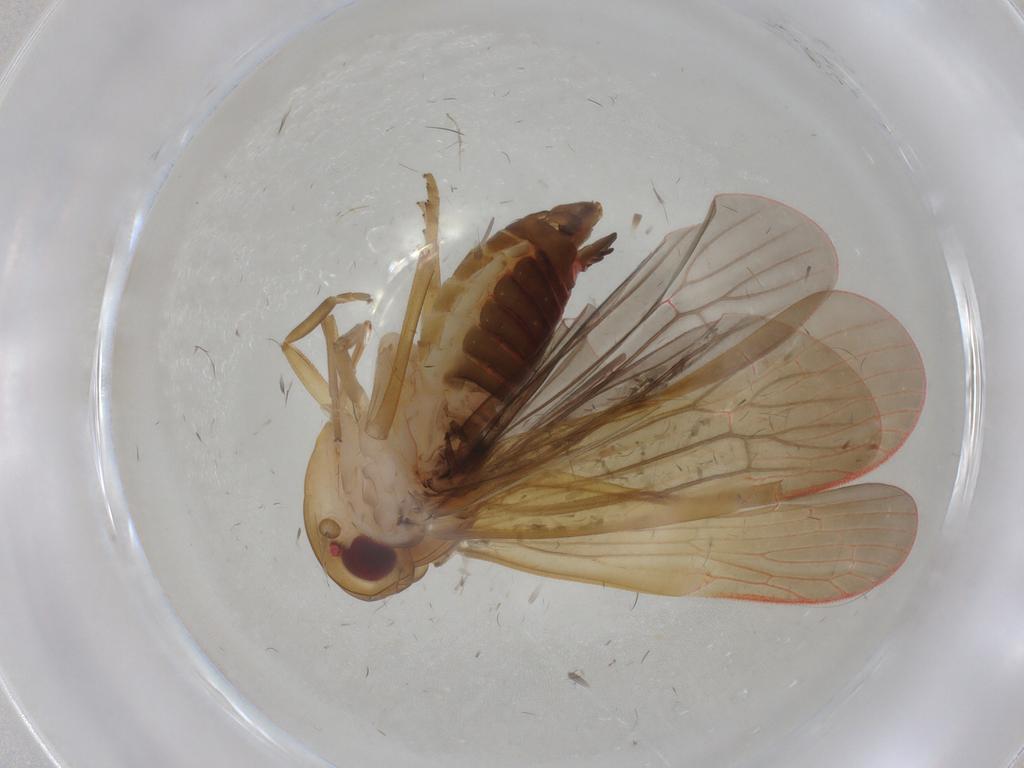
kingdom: Animalia
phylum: Arthropoda
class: Insecta
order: Hemiptera
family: Achilidae
